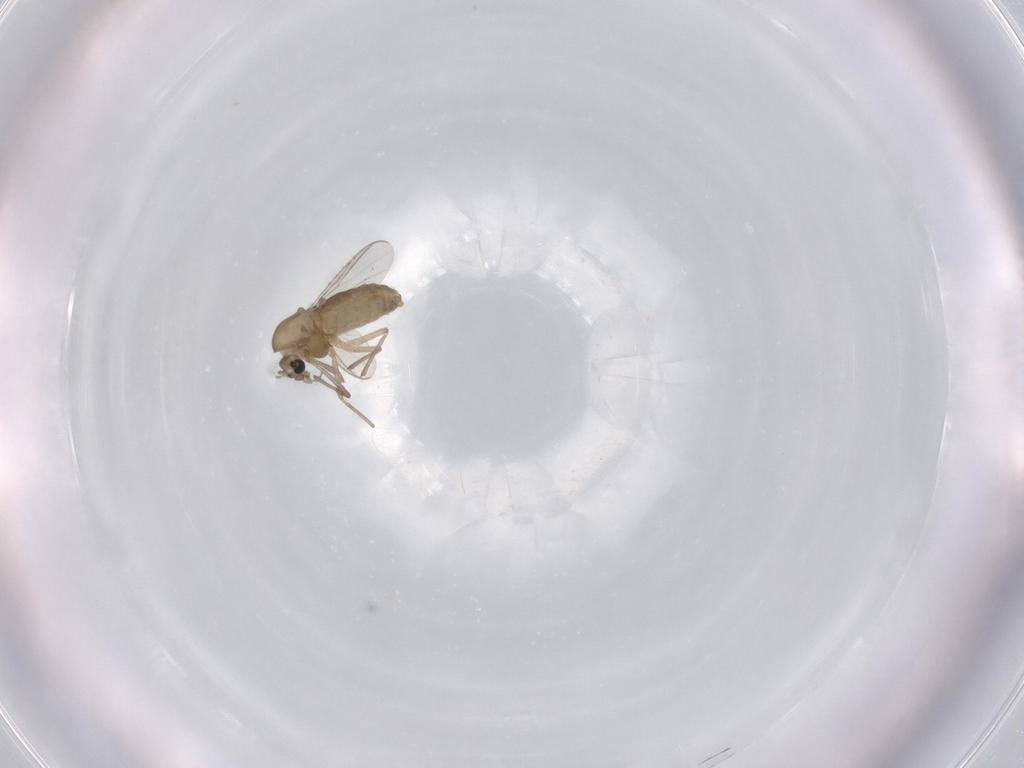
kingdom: Animalia
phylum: Arthropoda
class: Insecta
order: Diptera
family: Chironomidae
